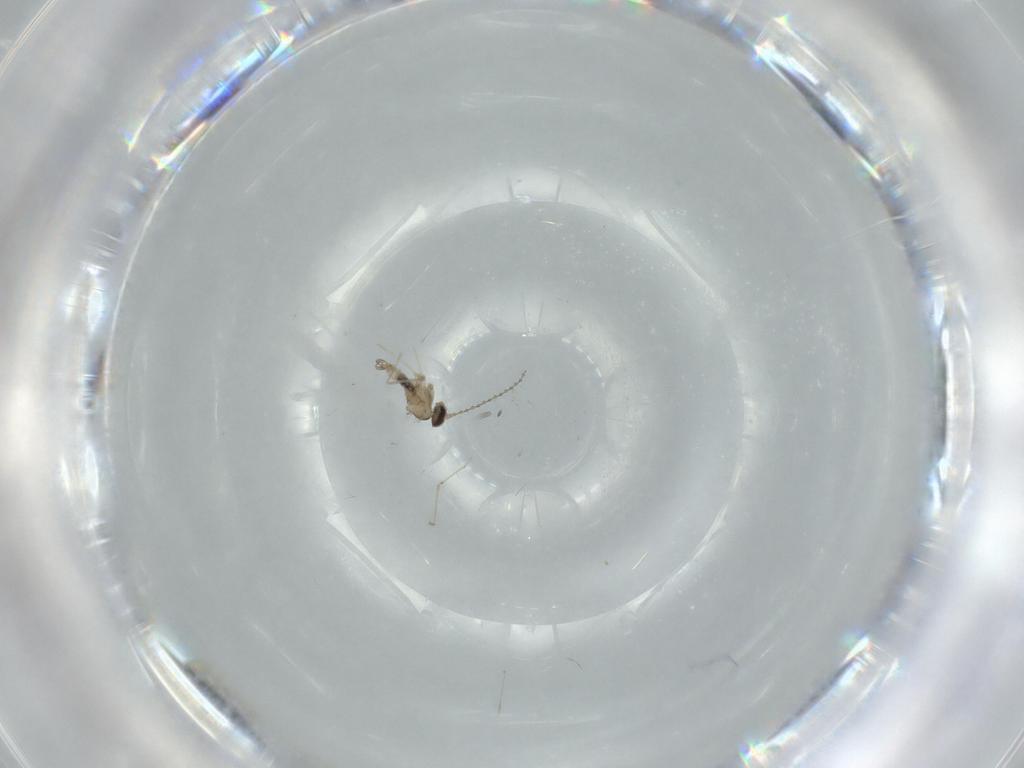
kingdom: Animalia
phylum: Arthropoda
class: Insecta
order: Diptera
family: Cecidomyiidae
